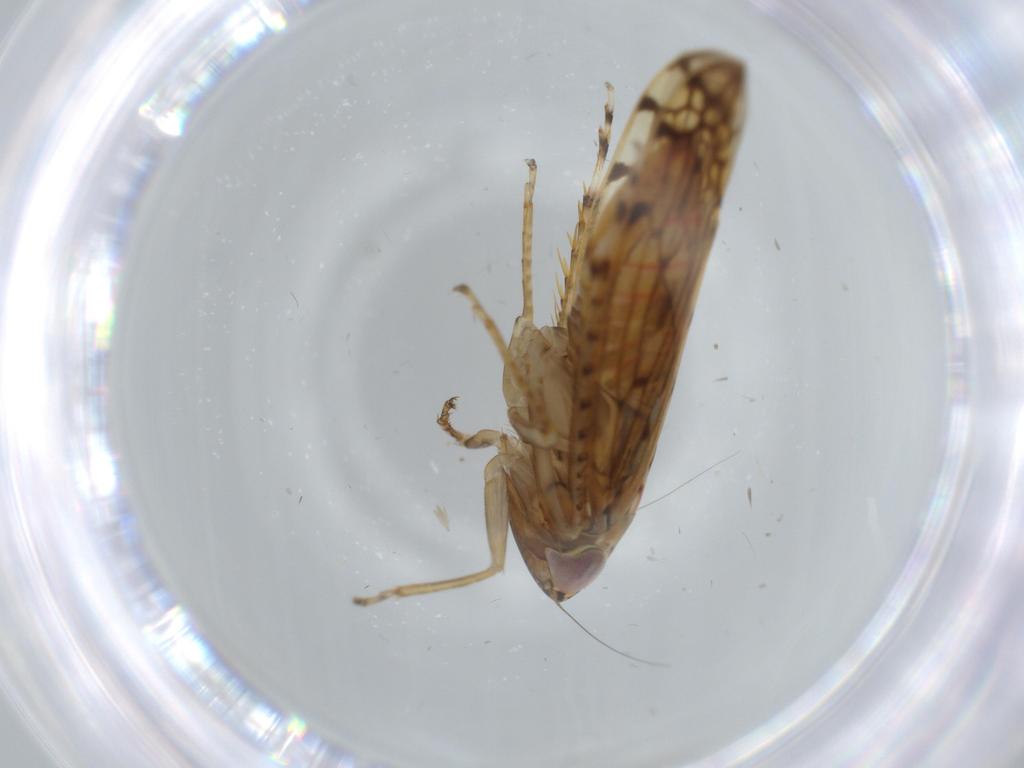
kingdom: Animalia
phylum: Arthropoda
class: Insecta
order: Hemiptera
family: Cicadellidae
